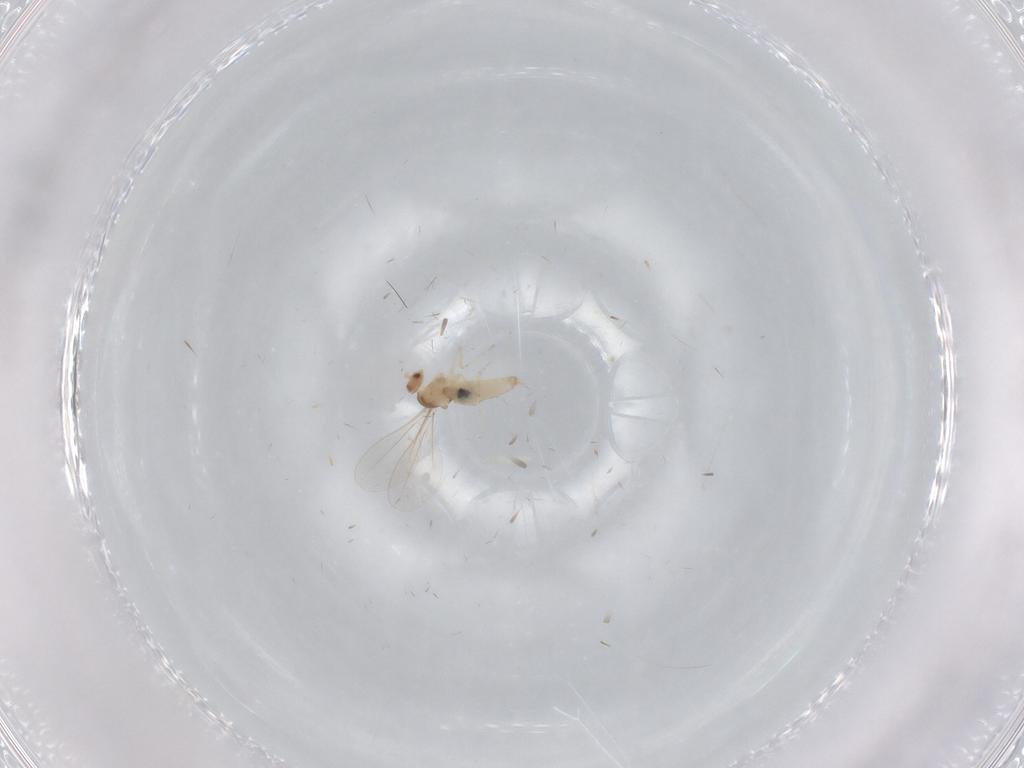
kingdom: Animalia
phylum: Arthropoda
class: Insecta
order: Diptera
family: Cecidomyiidae
